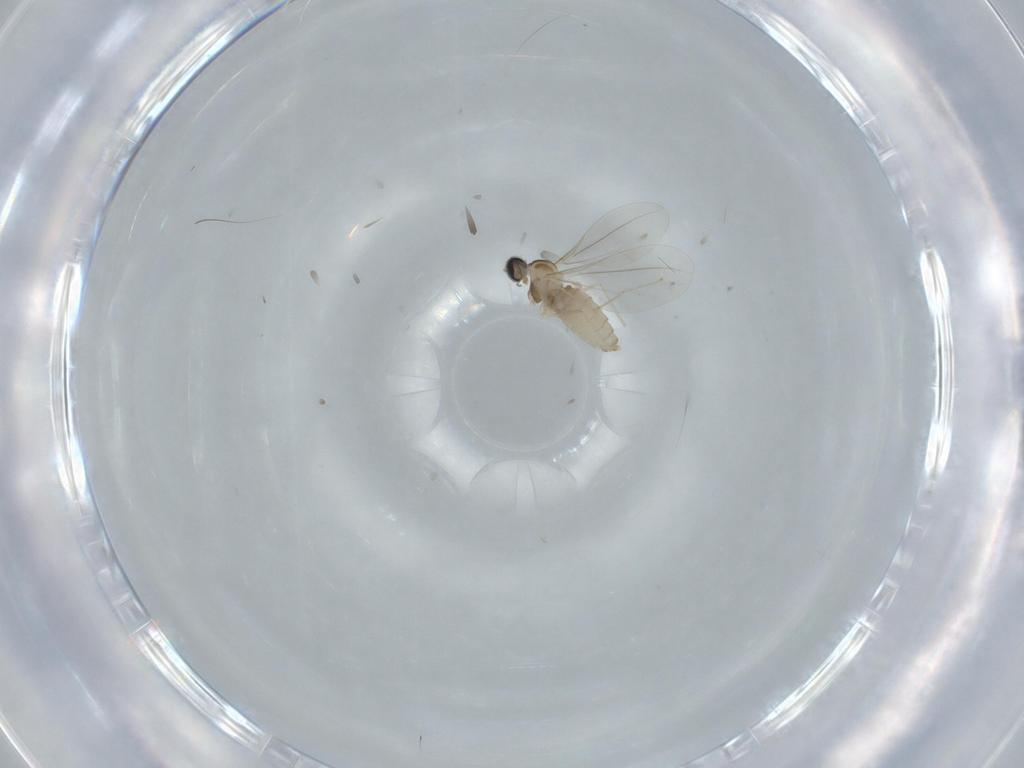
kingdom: Animalia
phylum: Arthropoda
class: Insecta
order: Diptera
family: Cecidomyiidae
